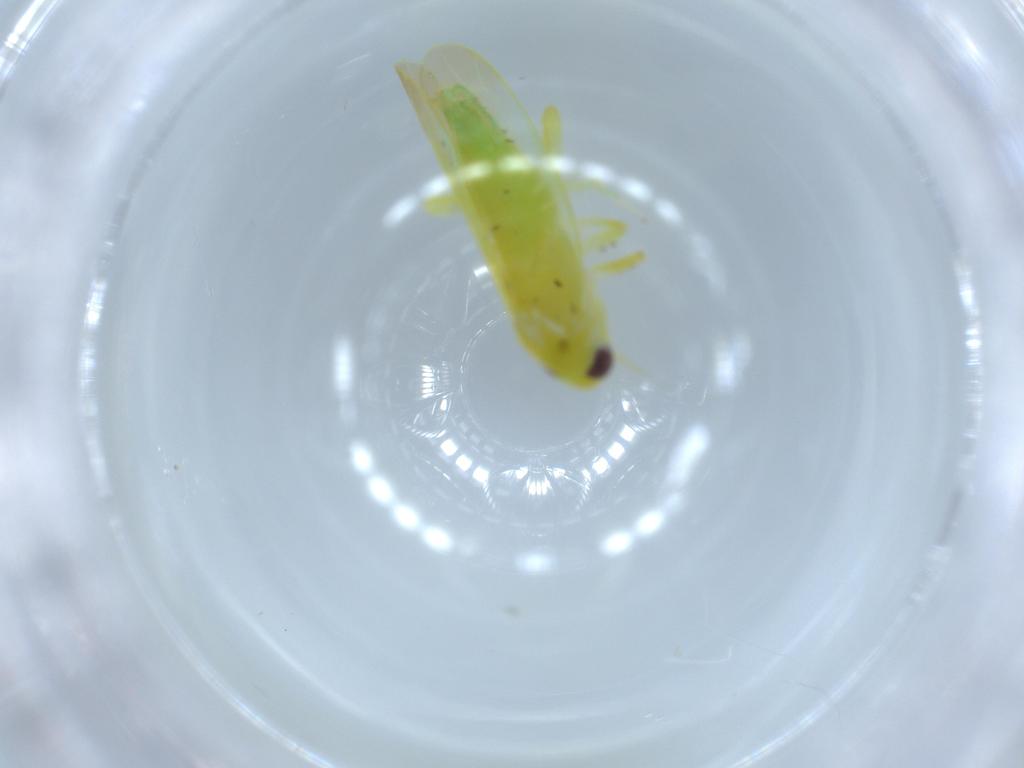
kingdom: Animalia
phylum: Arthropoda
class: Insecta
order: Hemiptera
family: Cicadellidae
